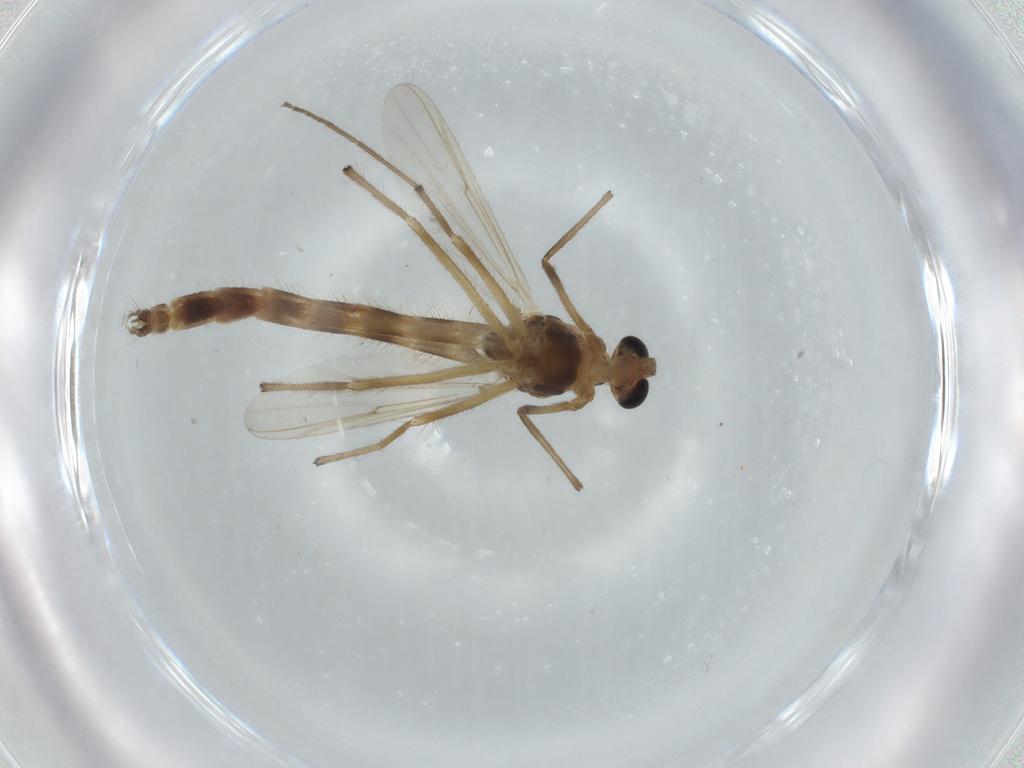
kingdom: Animalia
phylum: Arthropoda
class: Insecta
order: Diptera
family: Chironomidae
